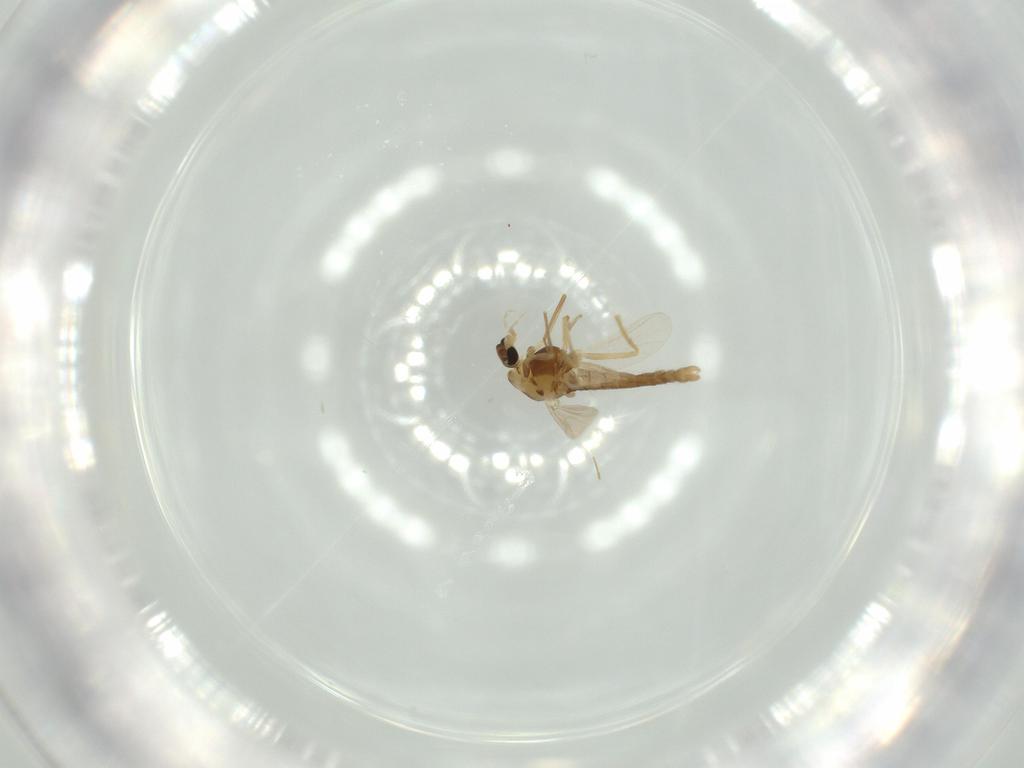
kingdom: Animalia
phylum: Arthropoda
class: Insecta
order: Diptera
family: Chironomidae
